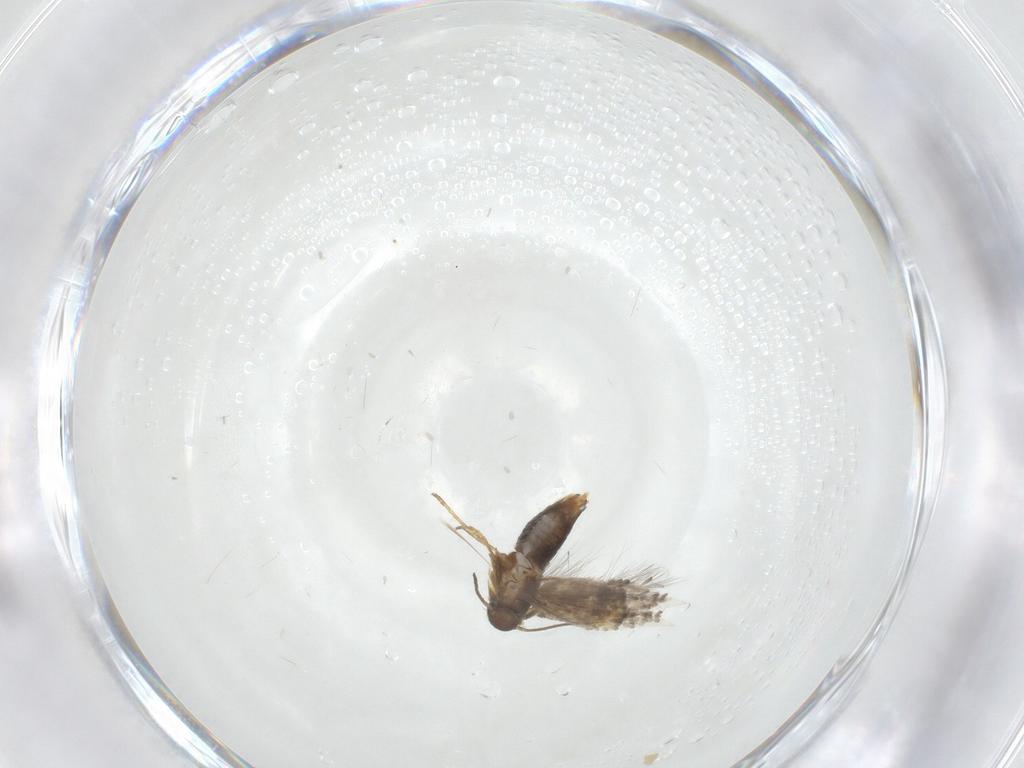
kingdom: Animalia
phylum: Arthropoda
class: Insecta
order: Lepidoptera
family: Heliozelidae
